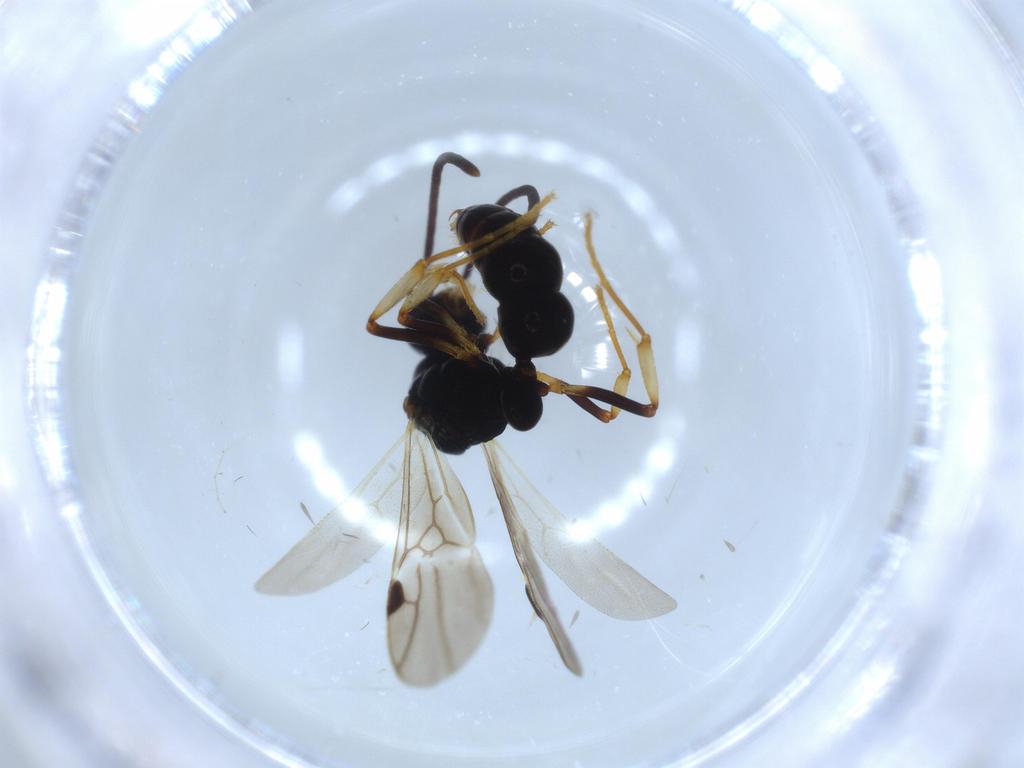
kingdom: Animalia
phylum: Arthropoda
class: Insecta
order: Hymenoptera
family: Formicidae
